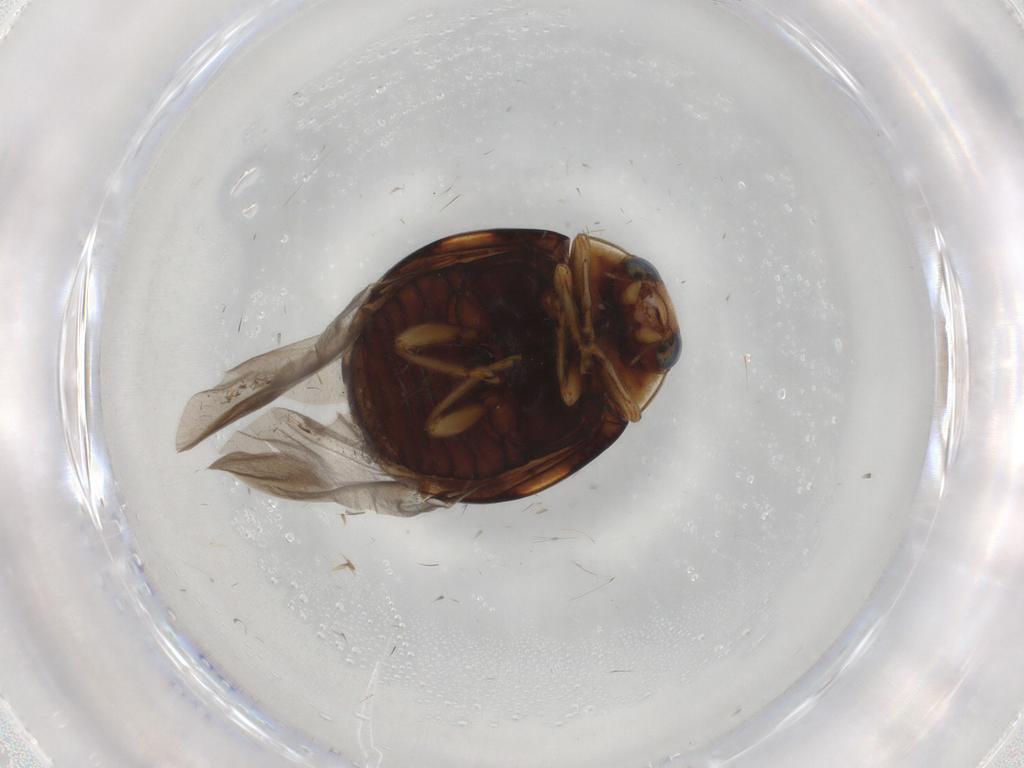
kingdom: Animalia
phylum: Arthropoda
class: Insecta
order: Coleoptera
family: Coccinellidae
